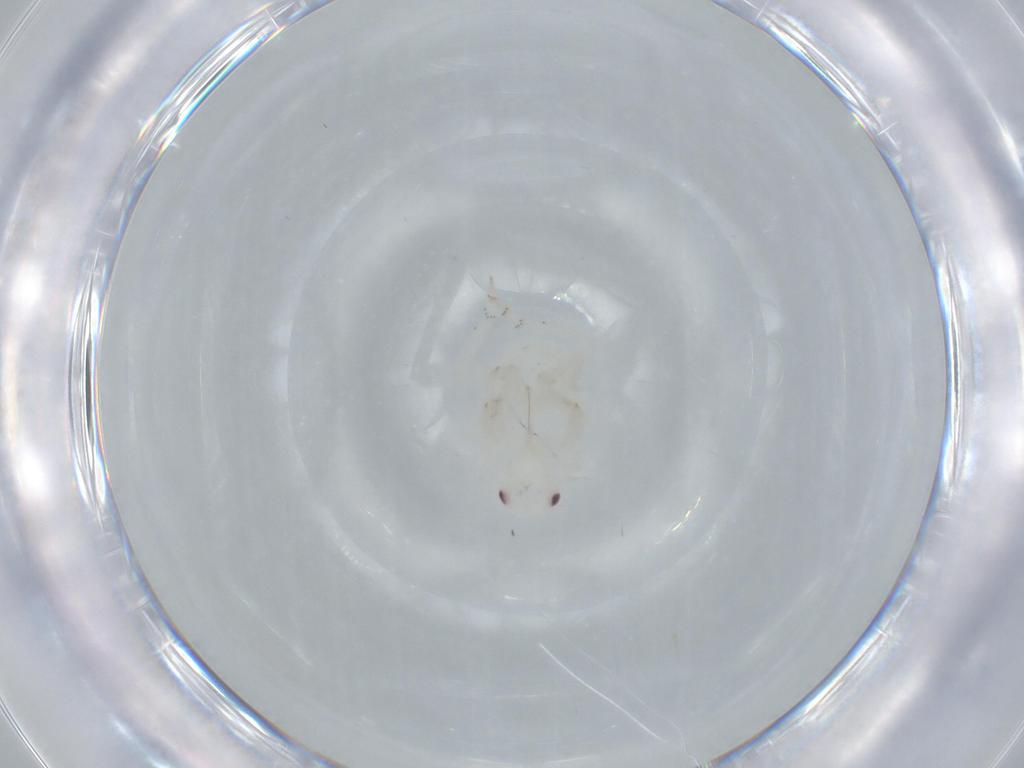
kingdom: Animalia
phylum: Arthropoda
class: Insecta
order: Hemiptera
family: Flatidae
